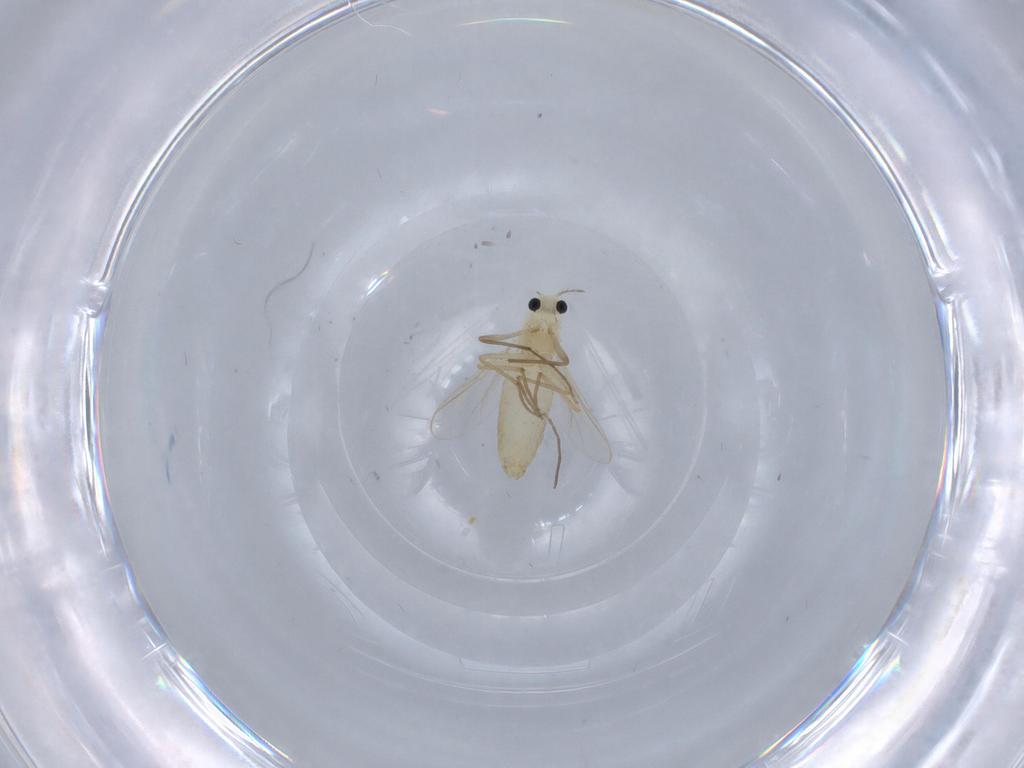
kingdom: Animalia
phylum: Arthropoda
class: Insecta
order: Diptera
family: Chironomidae
